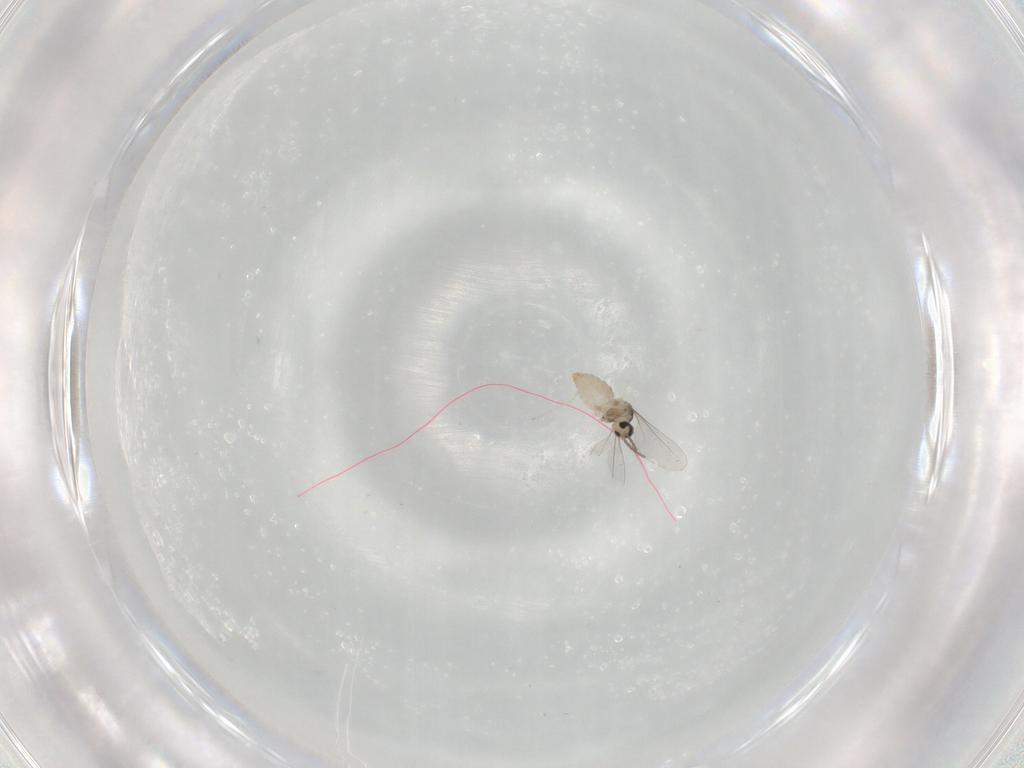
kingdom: Animalia
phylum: Arthropoda
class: Insecta
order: Diptera
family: Cecidomyiidae
